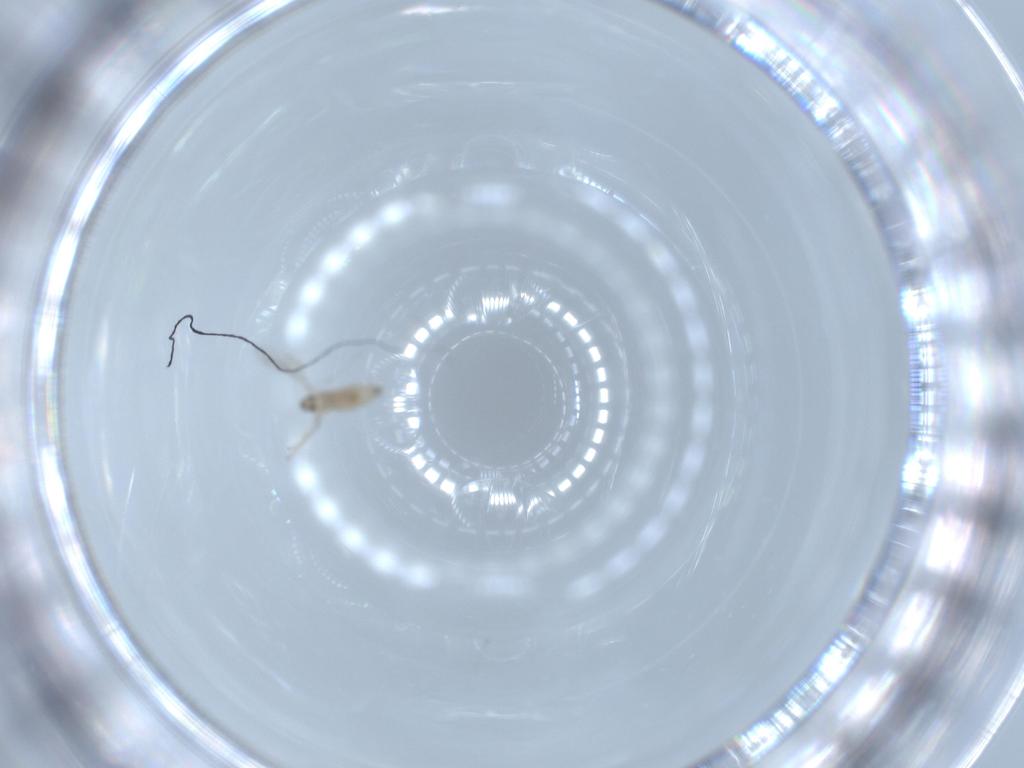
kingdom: Animalia
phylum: Arthropoda
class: Insecta
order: Diptera
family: Cecidomyiidae
